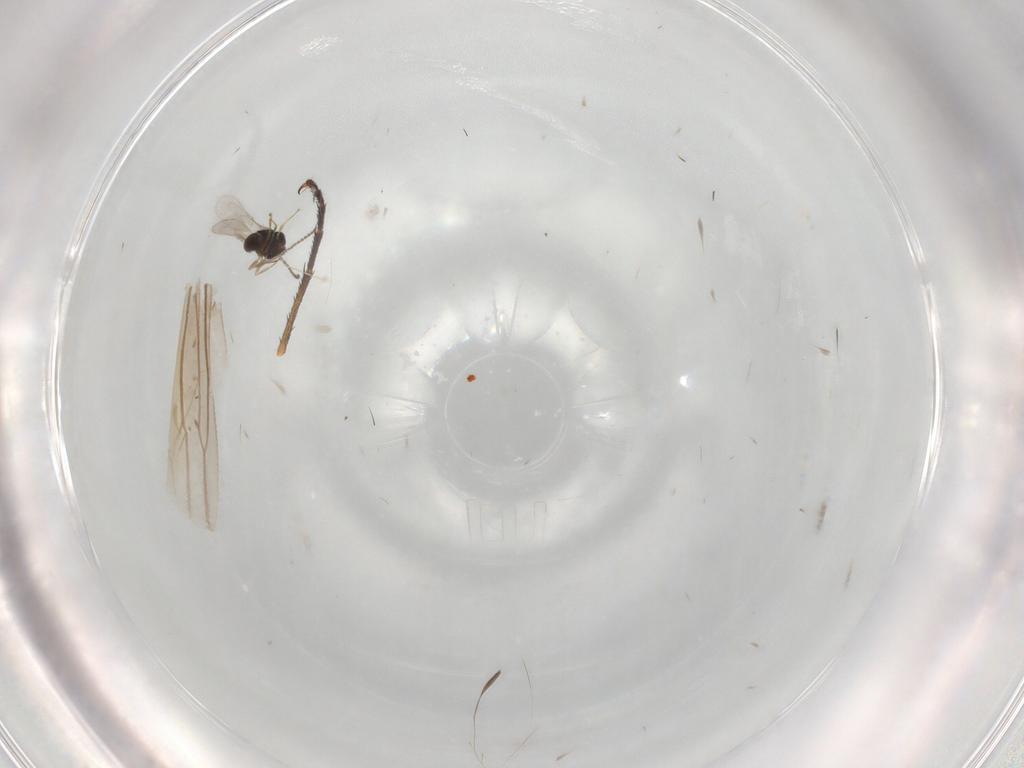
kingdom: Animalia
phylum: Arthropoda
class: Insecta
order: Hymenoptera
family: Scelionidae
